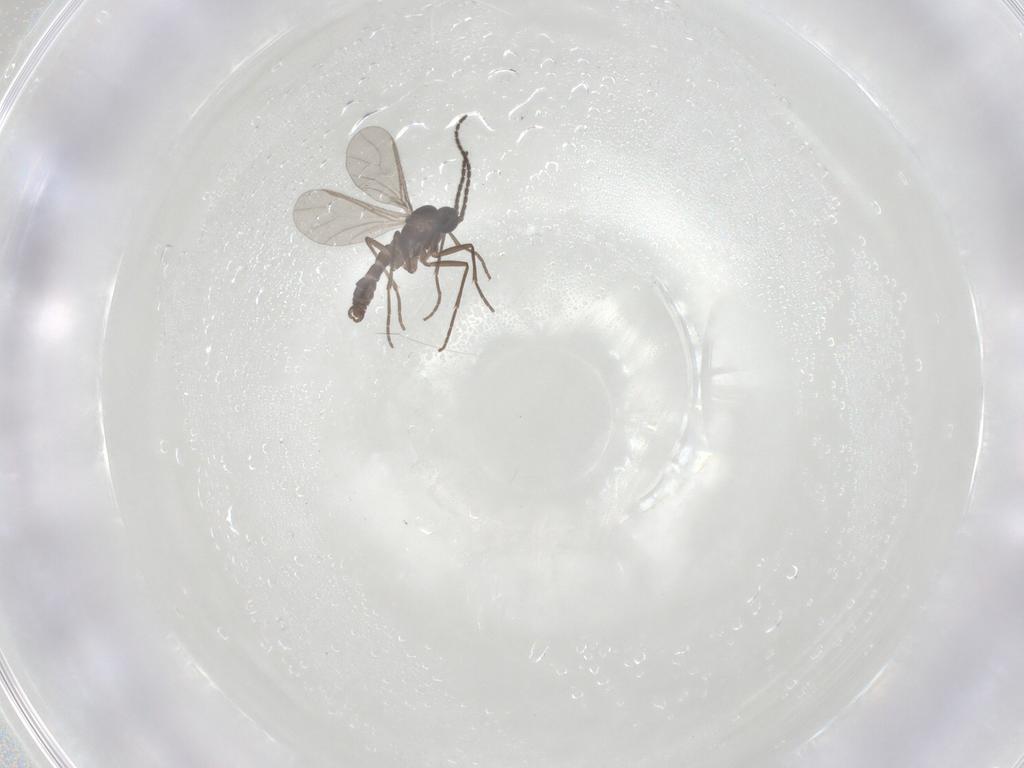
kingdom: Animalia
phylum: Arthropoda
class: Insecta
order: Diptera
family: Sciaridae
